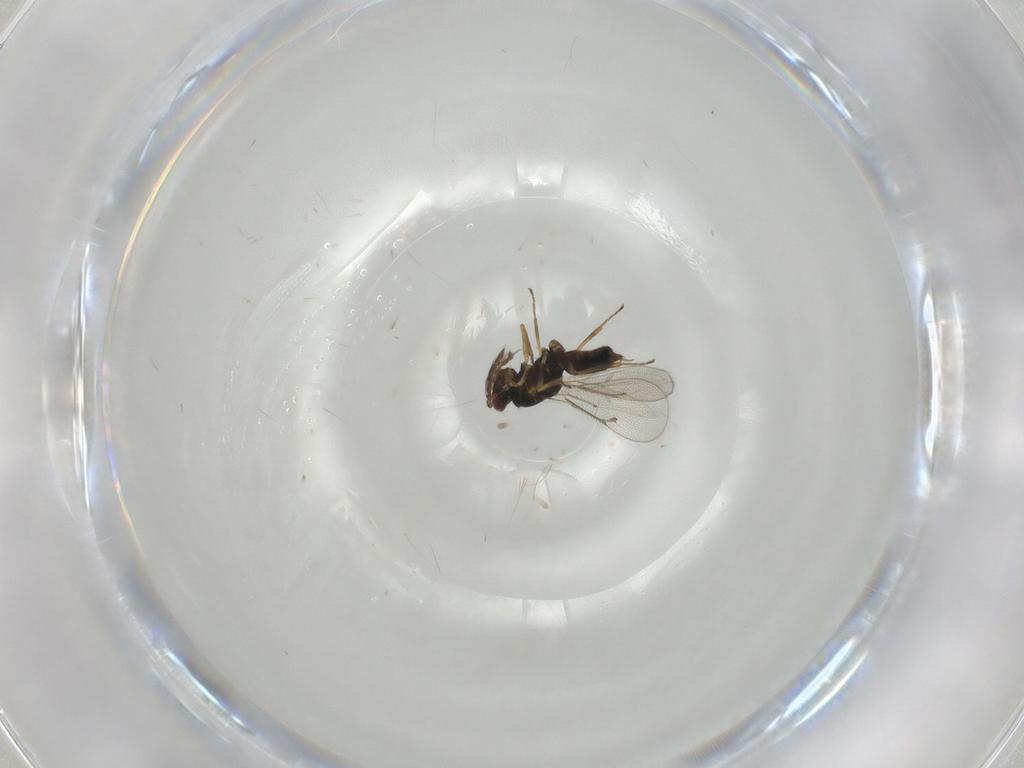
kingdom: Animalia
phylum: Arthropoda
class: Insecta
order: Hymenoptera
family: Eulophidae
